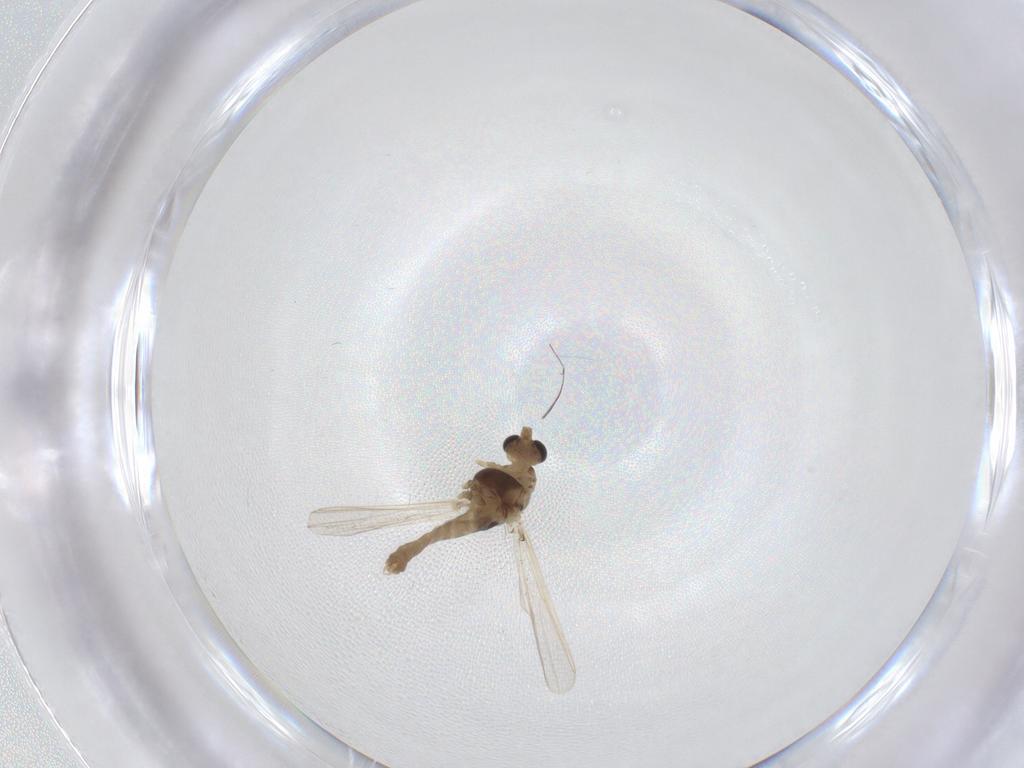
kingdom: Animalia
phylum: Arthropoda
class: Insecta
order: Diptera
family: Chironomidae
